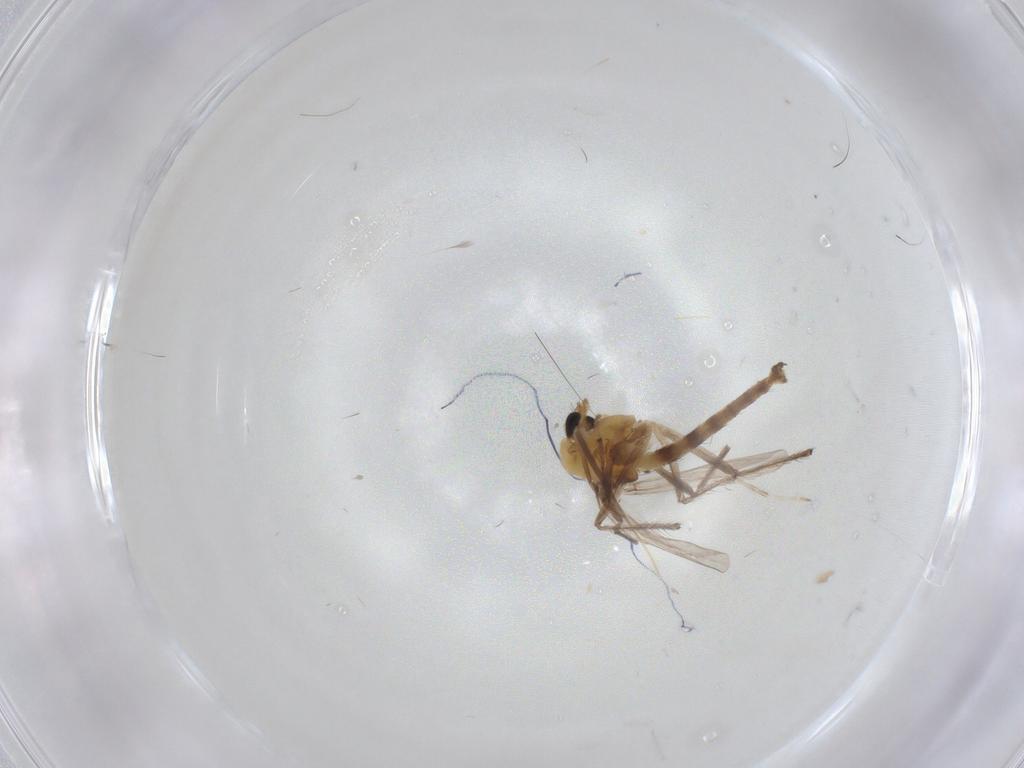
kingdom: Animalia
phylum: Arthropoda
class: Insecta
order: Diptera
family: Chironomidae
